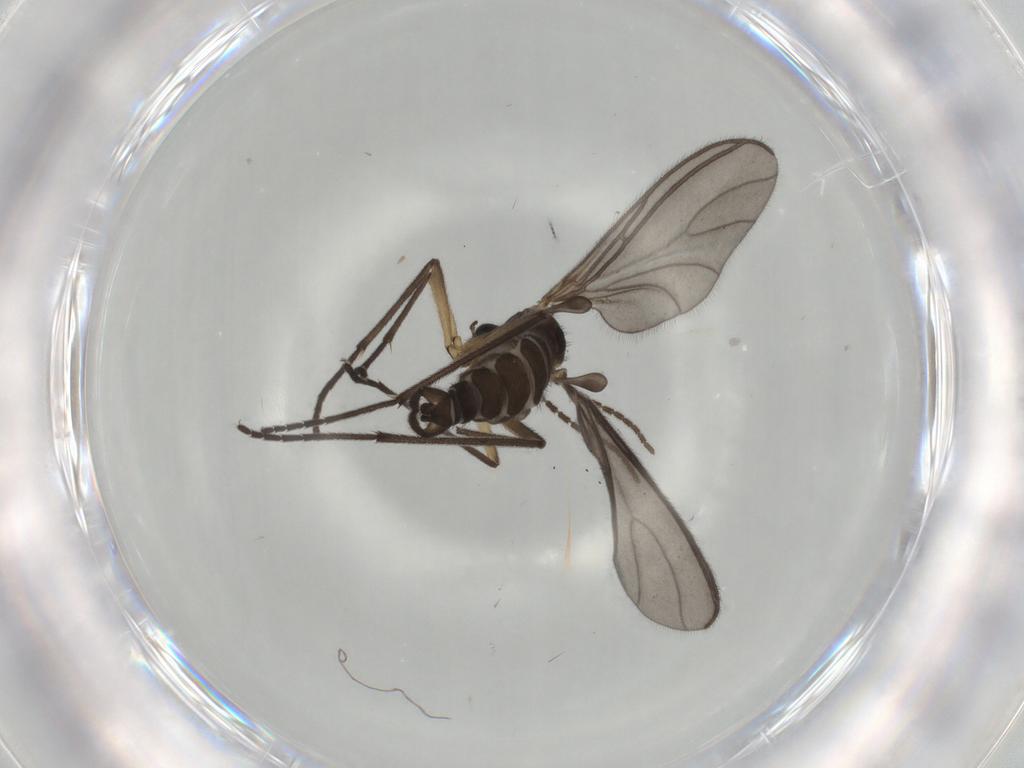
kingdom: Animalia
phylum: Arthropoda
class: Insecta
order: Diptera
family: Sciaridae
